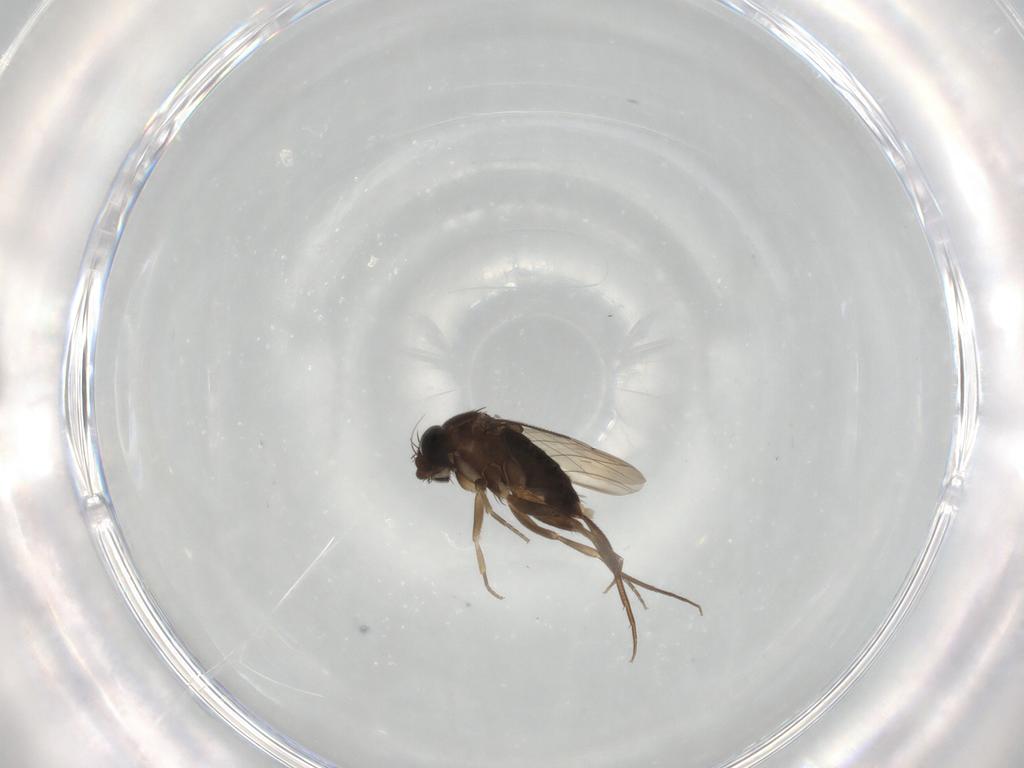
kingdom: Animalia
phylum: Arthropoda
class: Insecta
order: Diptera
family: Phoridae
